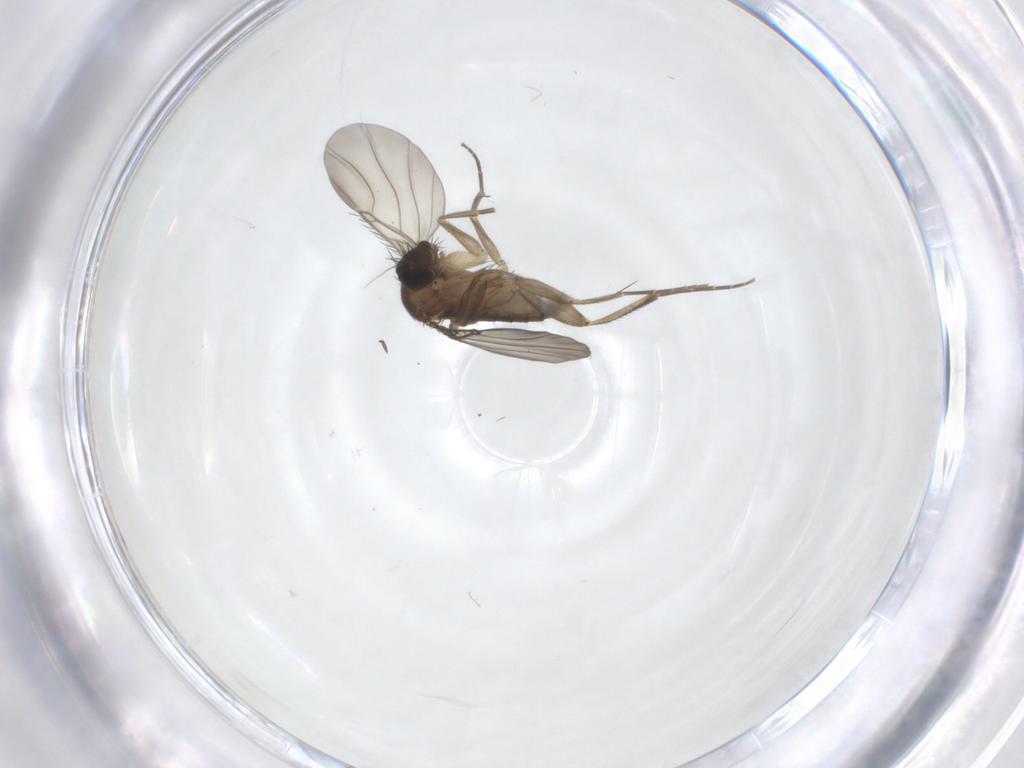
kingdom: Animalia
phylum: Arthropoda
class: Insecta
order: Diptera
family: Phoridae
